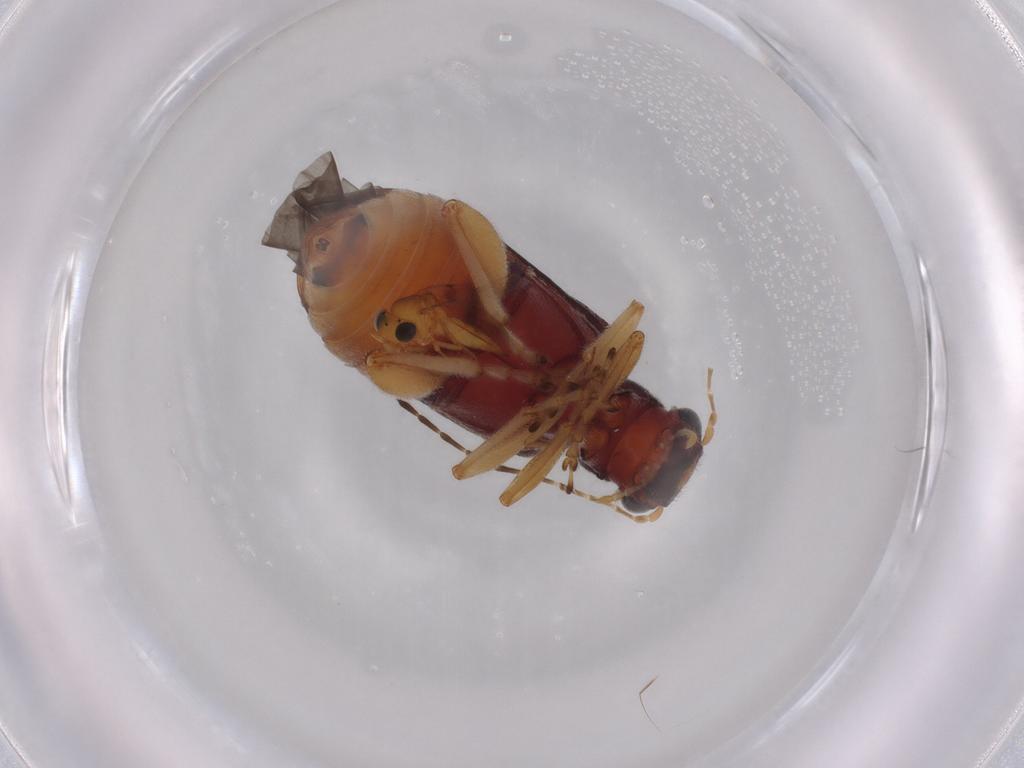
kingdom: Animalia
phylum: Arthropoda
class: Insecta
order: Coleoptera
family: Chrysomelidae
